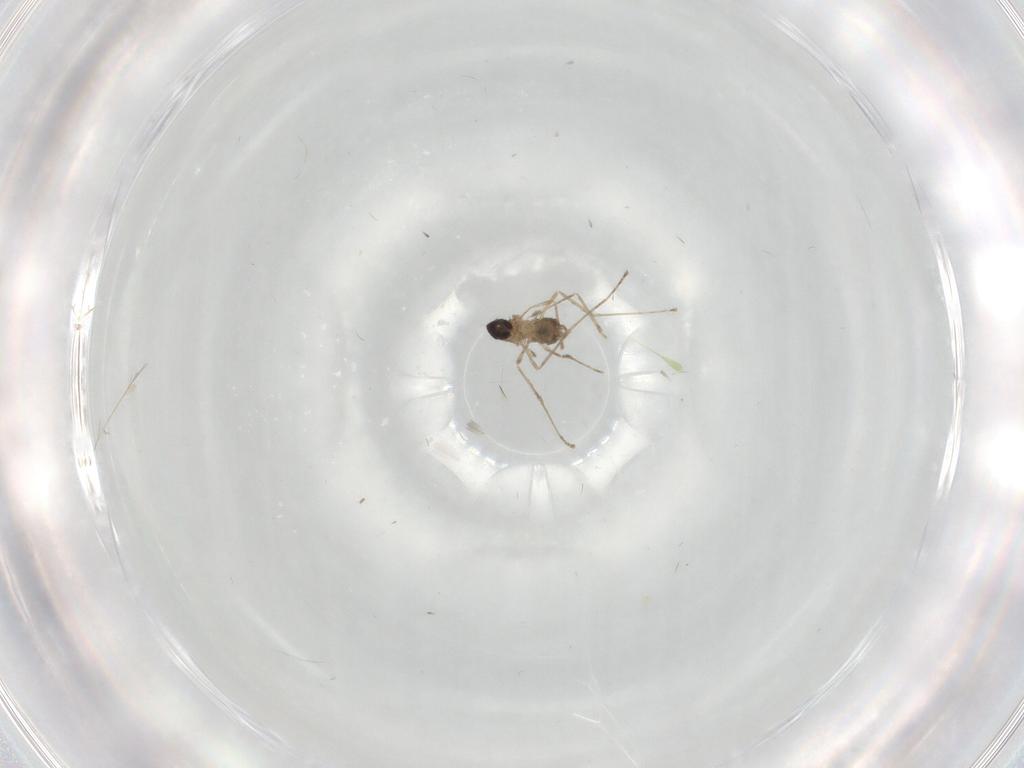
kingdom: Animalia
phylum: Arthropoda
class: Insecta
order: Diptera
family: Cecidomyiidae
